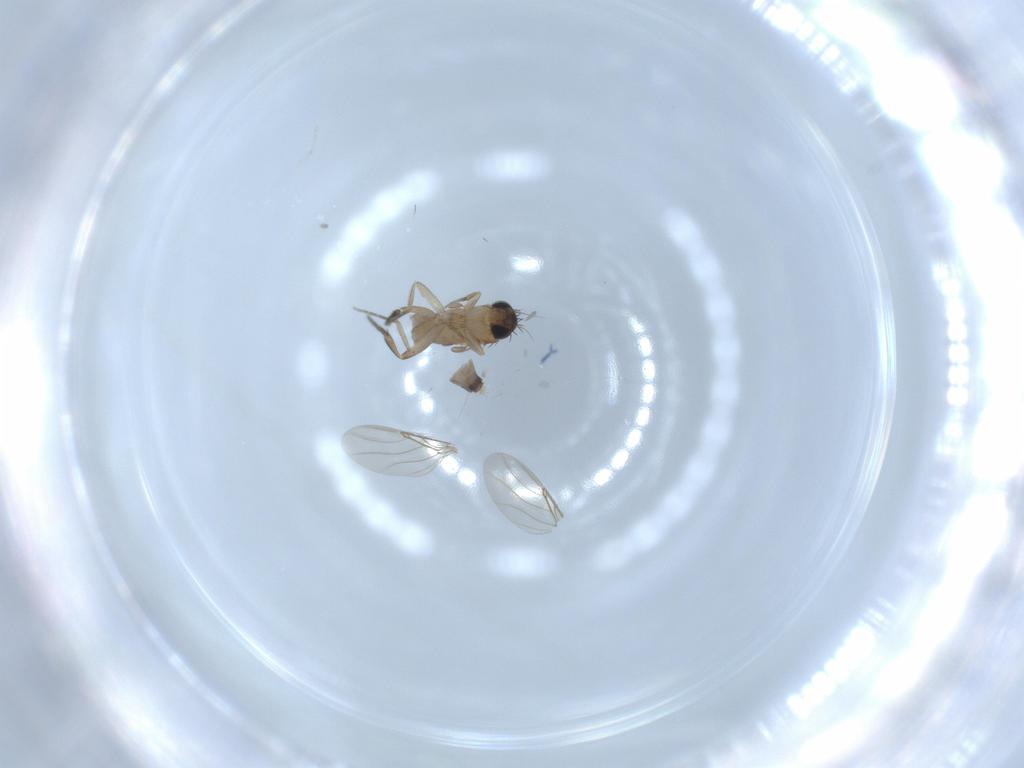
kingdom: Animalia
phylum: Arthropoda
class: Insecta
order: Diptera
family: Phoridae
